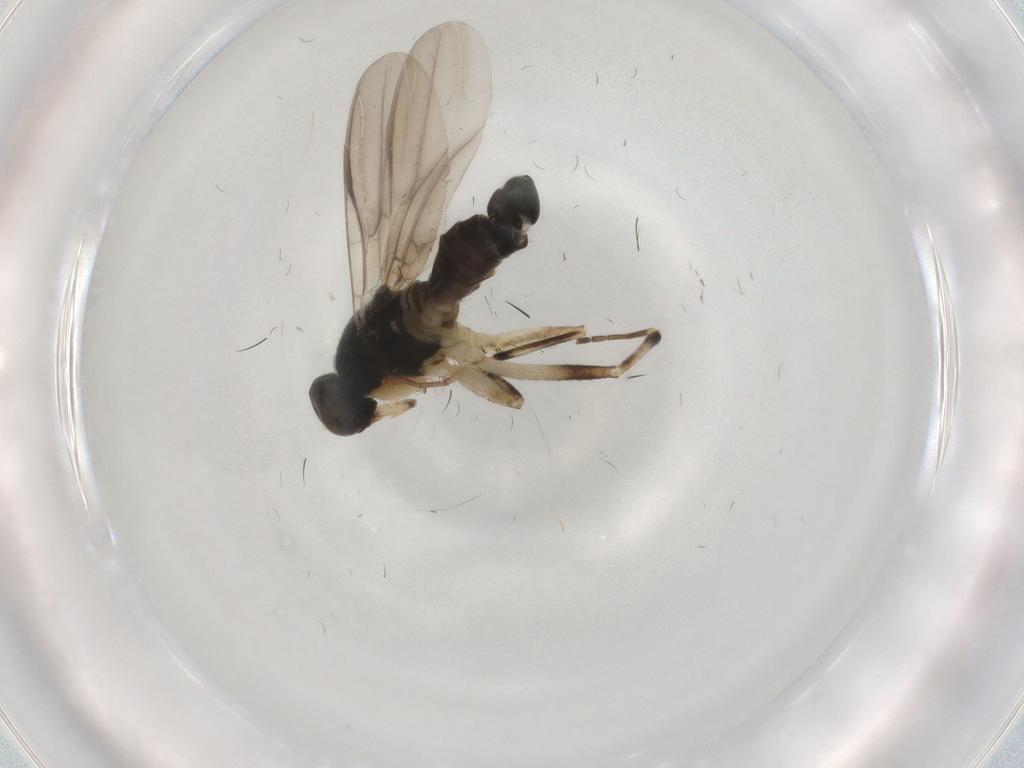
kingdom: Animalia
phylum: Arthropoda
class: Insecta
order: Diptera
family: Hybotidae
